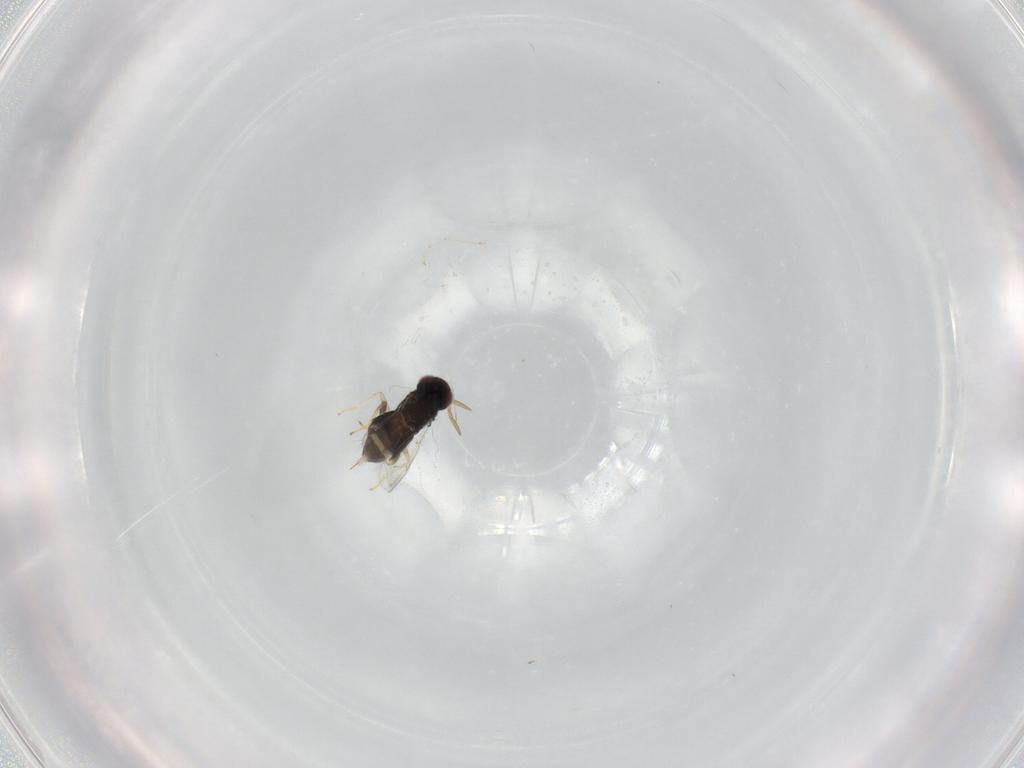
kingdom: Animalia
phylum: Arthropoda
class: Insecta
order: Hymenoptera
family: Aphelinidae
